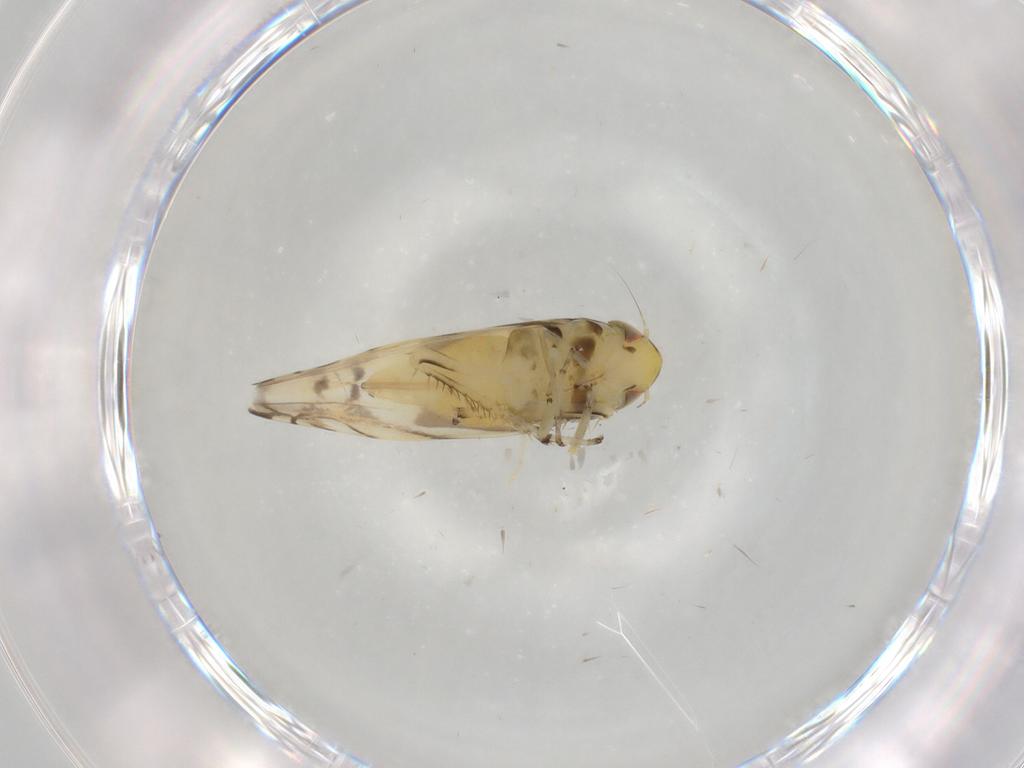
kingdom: Animalia
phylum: Arthropoda
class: Insecta
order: Hemiptera
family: Cicadellidae
